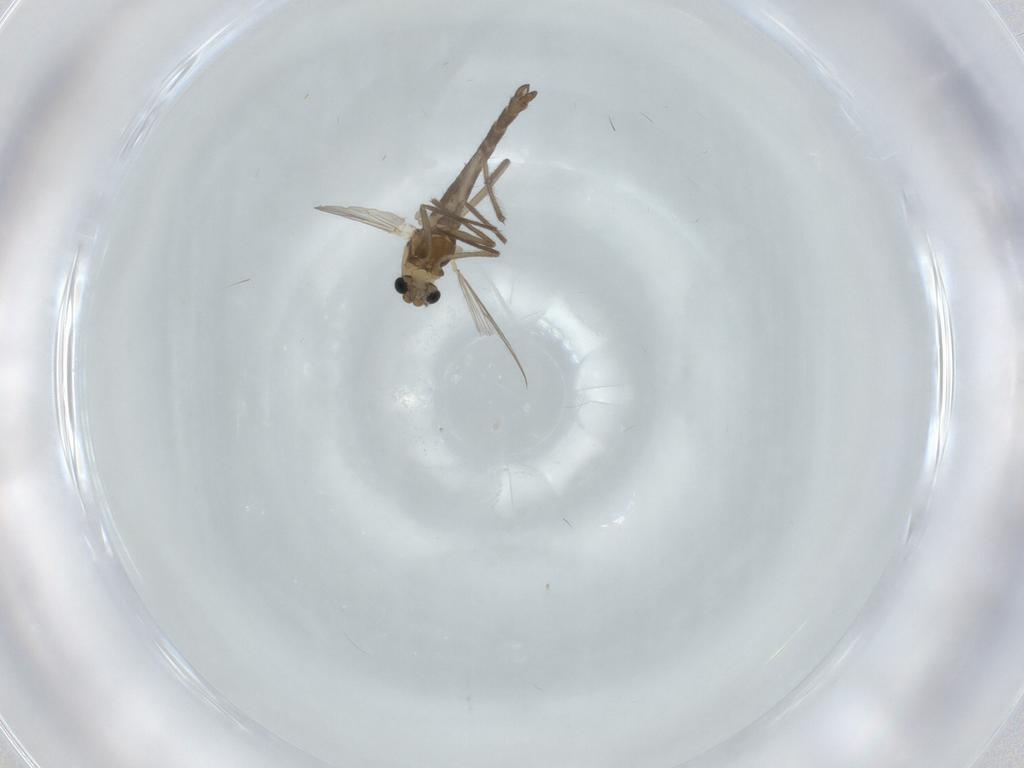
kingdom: Animalia
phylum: Arthropoda
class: Insecta
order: Diptera
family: Chironomidae
